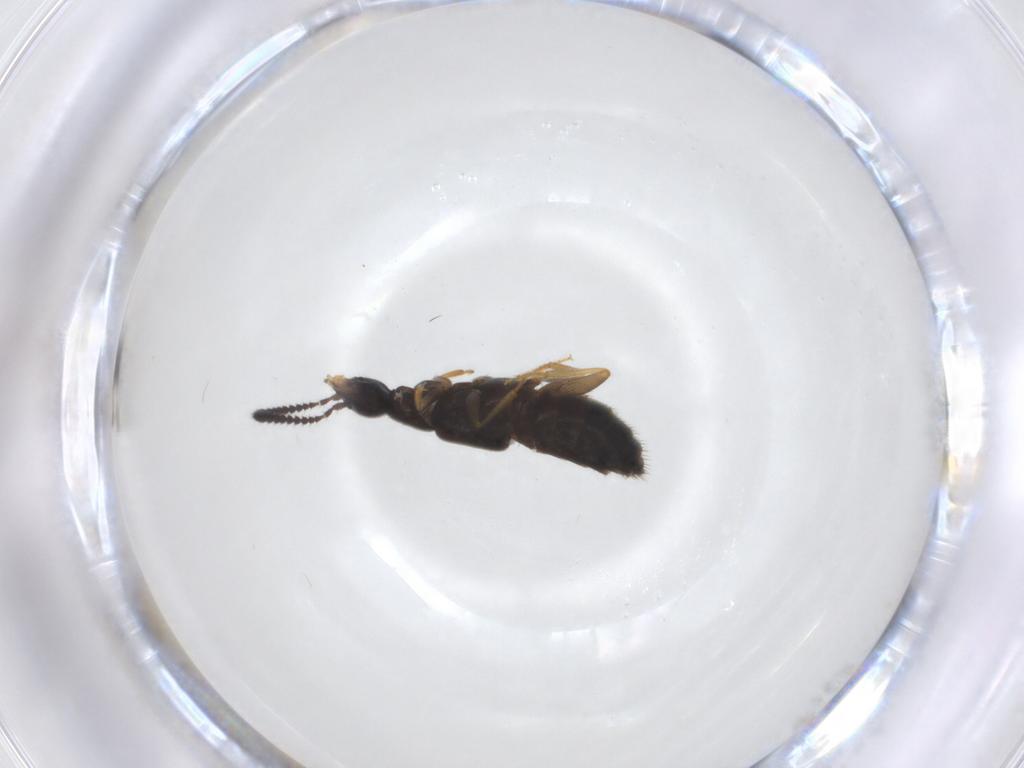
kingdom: Animalia
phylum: Arthropoda
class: Insecta
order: Coleoptera
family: Staphylinidae
